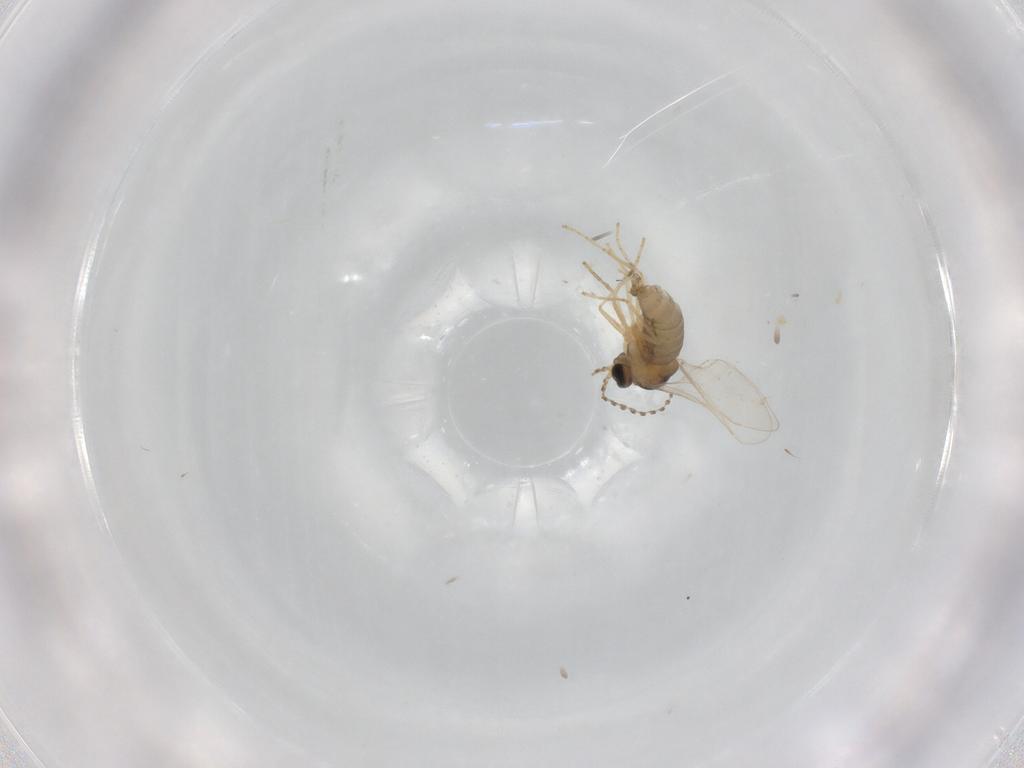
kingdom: Animalia
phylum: Arthropoda
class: Insecta
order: Diptera
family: Cecidomyiidae
